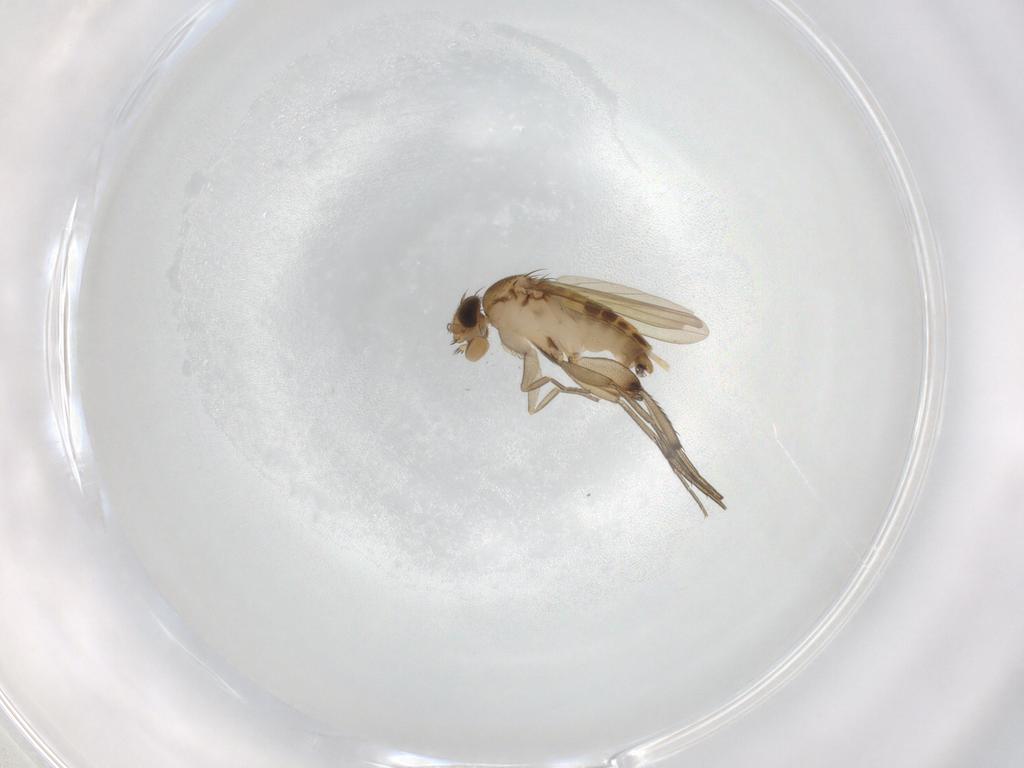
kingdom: Animalia
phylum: Arthropoda
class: Insecta
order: Diptera
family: Phoridae
